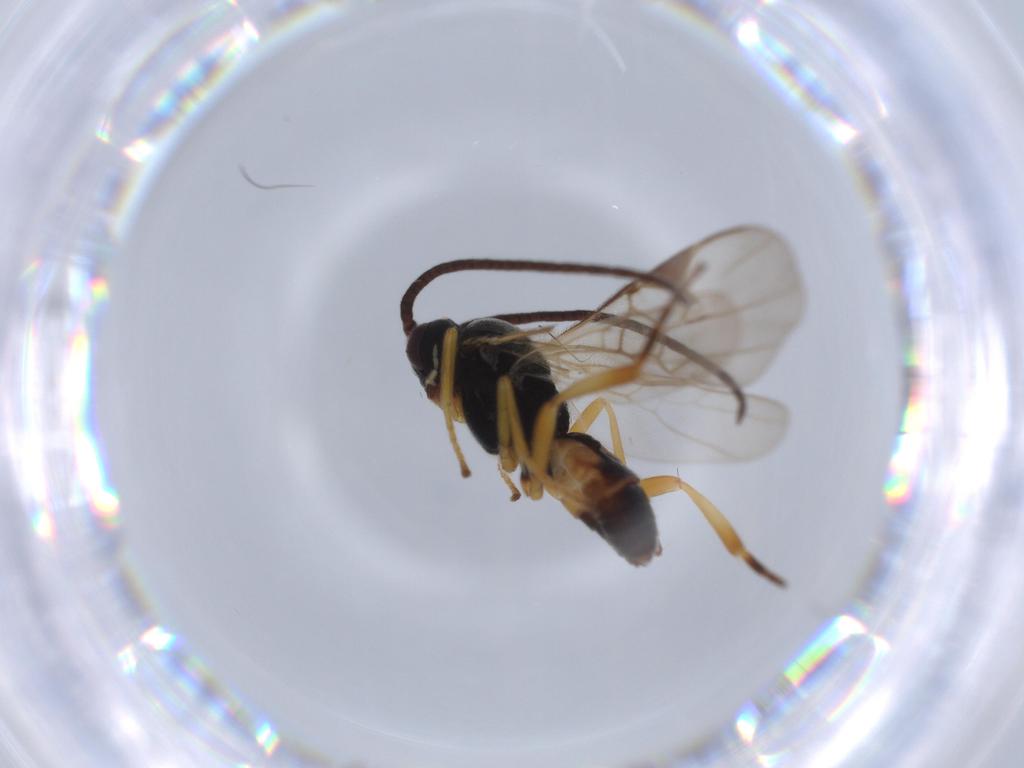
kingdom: Animalia
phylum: Arthropoda
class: Insecta
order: Hymenoptera
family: Braconidae
